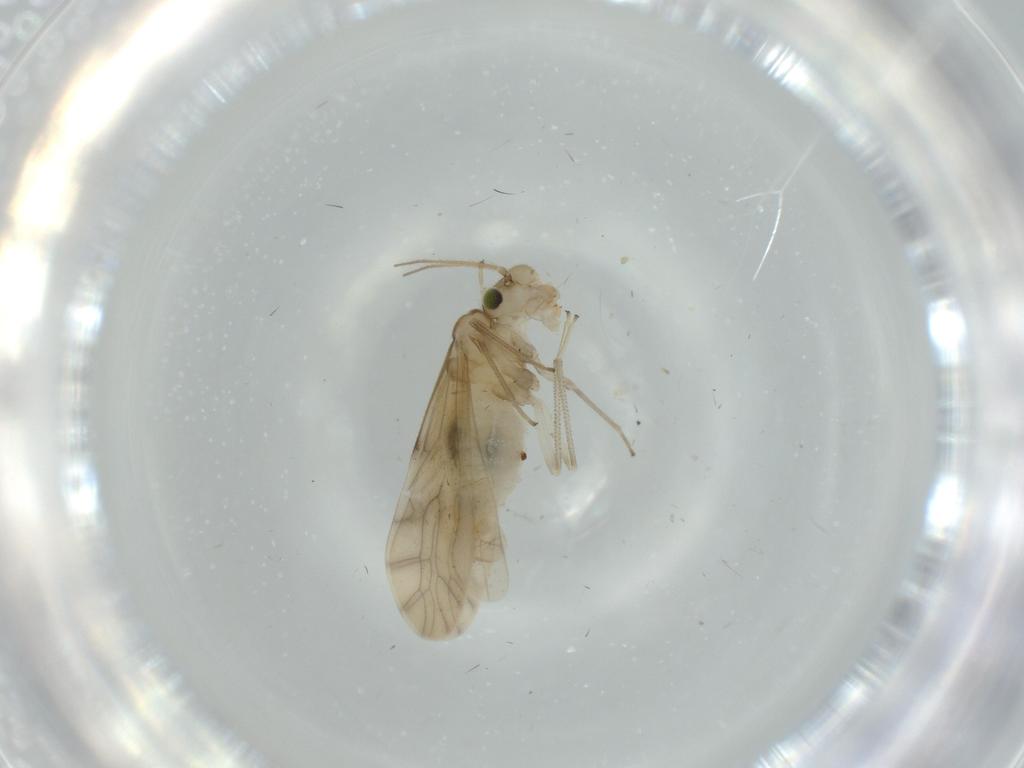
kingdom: Animalia
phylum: Arthropoda
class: Insecta
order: Psocodea
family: Caeciliusidae
